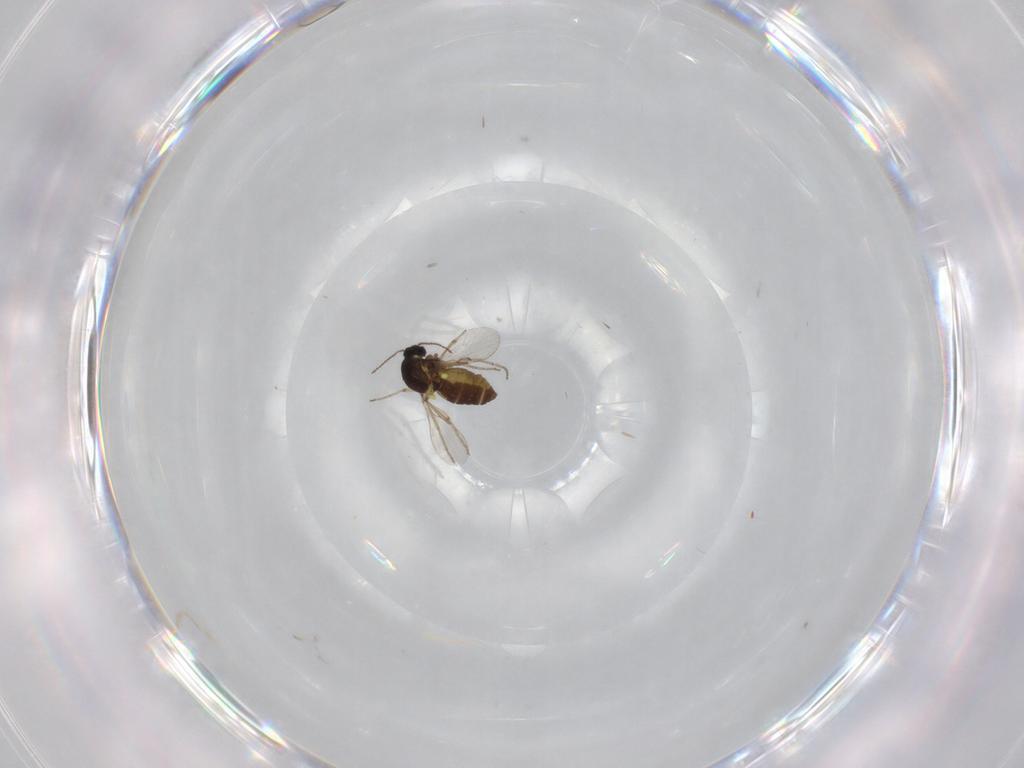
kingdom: Animalia
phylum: Arthropoda
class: Insecta
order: Diptera
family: Ceratopogonidae
